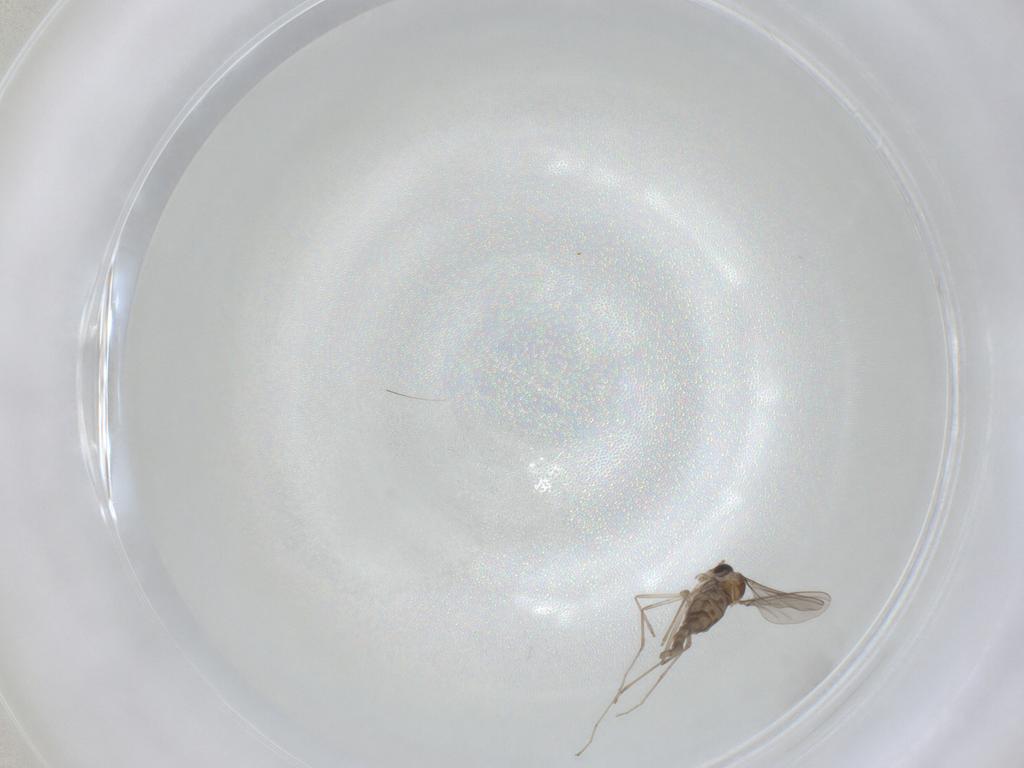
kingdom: Animalia
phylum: Arthropoda
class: Insecta
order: Diptera
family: Cecidomyiidae
